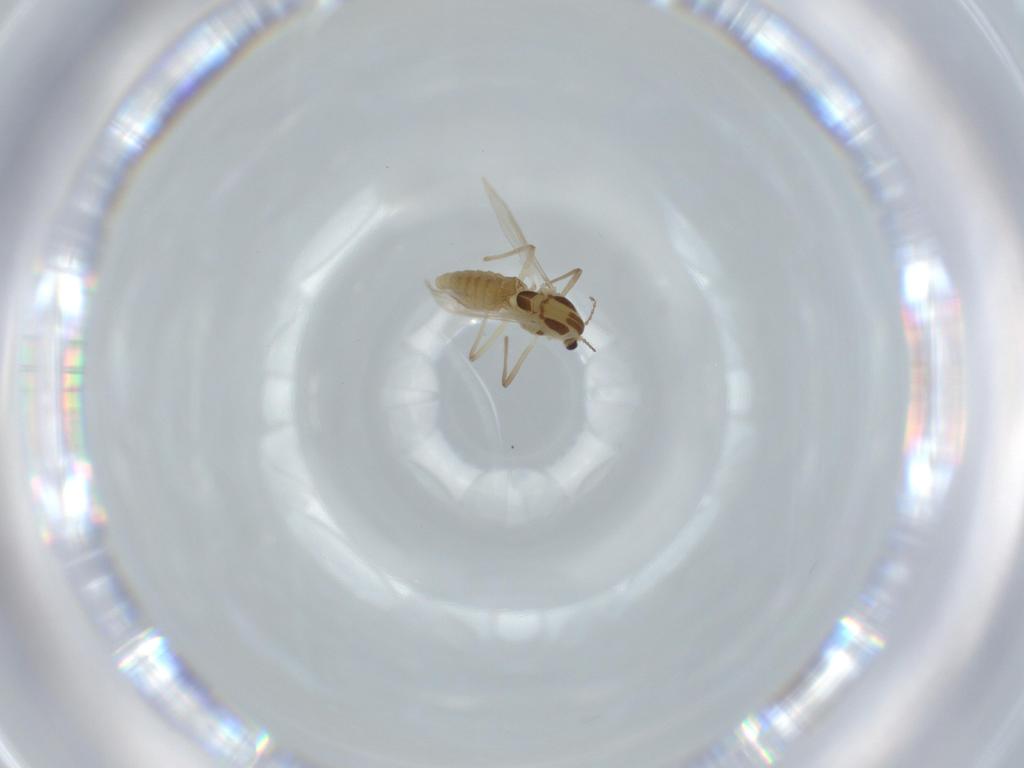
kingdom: Animalia
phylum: Arthropoda
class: Insecta
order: Diptera
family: Chironomidae
